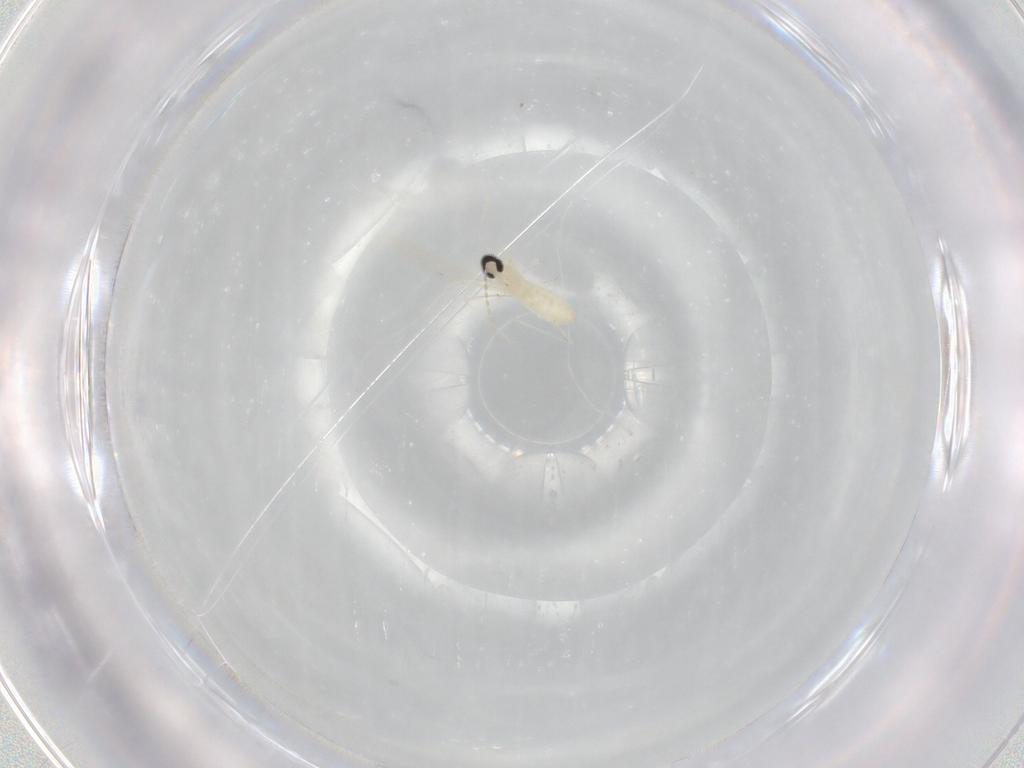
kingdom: Animalia
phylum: Arthropoda
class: Insecta
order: Diptera
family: Cecidomyiidae
